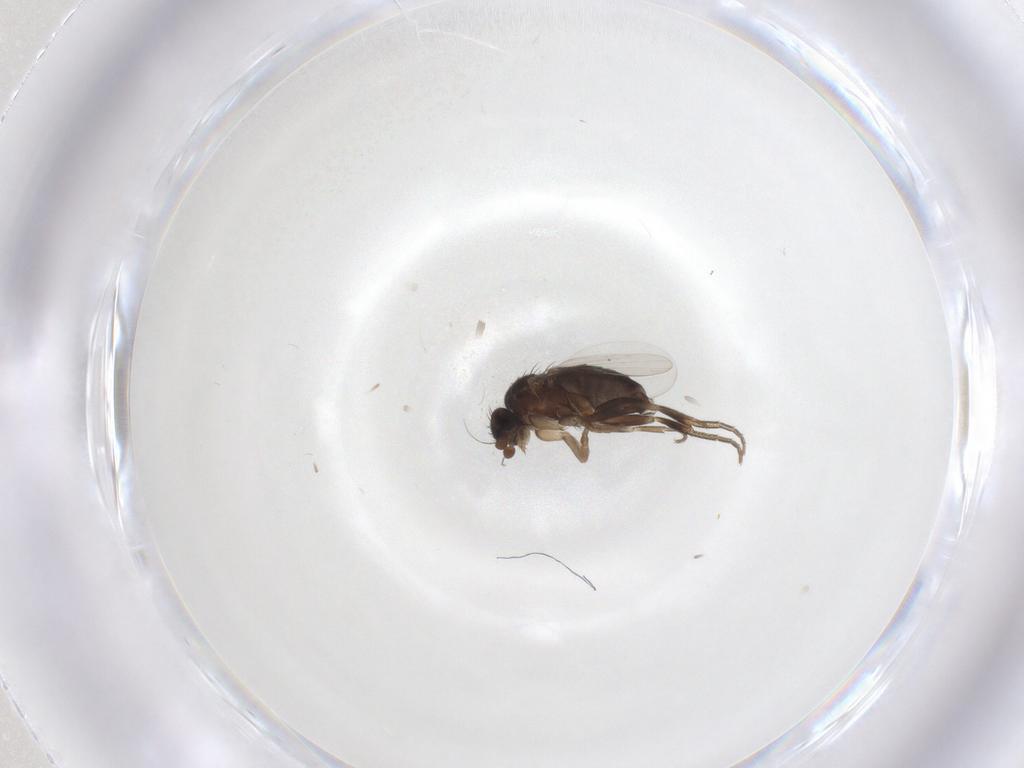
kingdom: Animalia
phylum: Arthropoda
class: Insecta
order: Diptera
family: Phoridae
